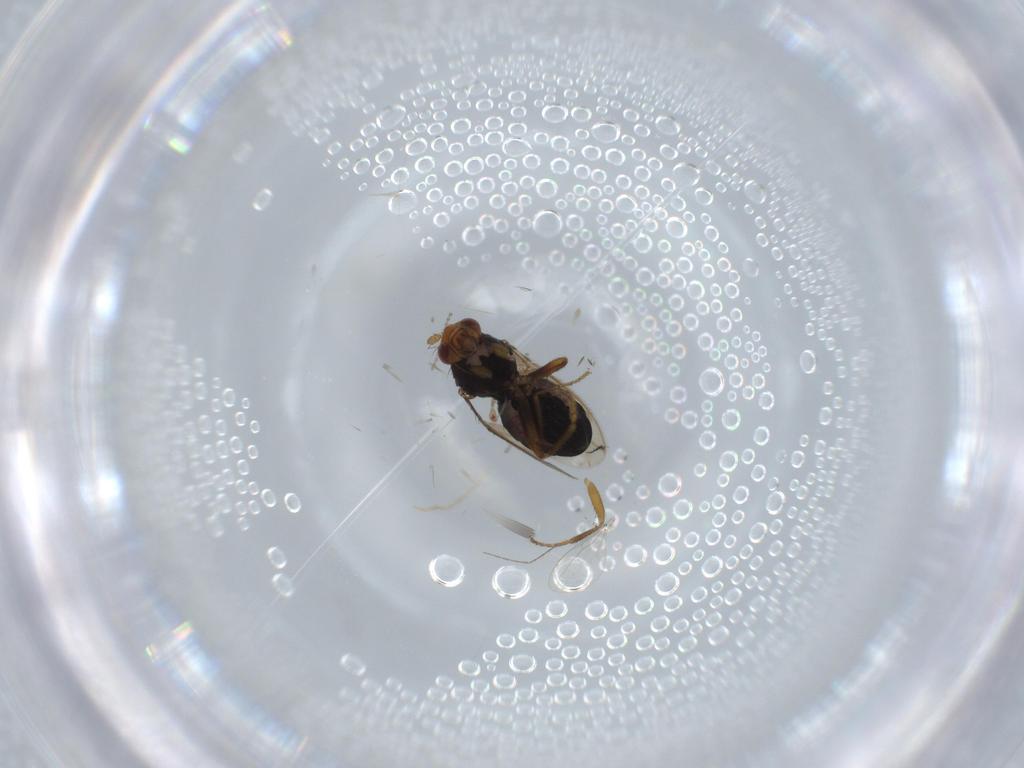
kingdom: Animalia
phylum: Arthropoda
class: Insecta
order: Diptera
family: Sphaeroceridae
